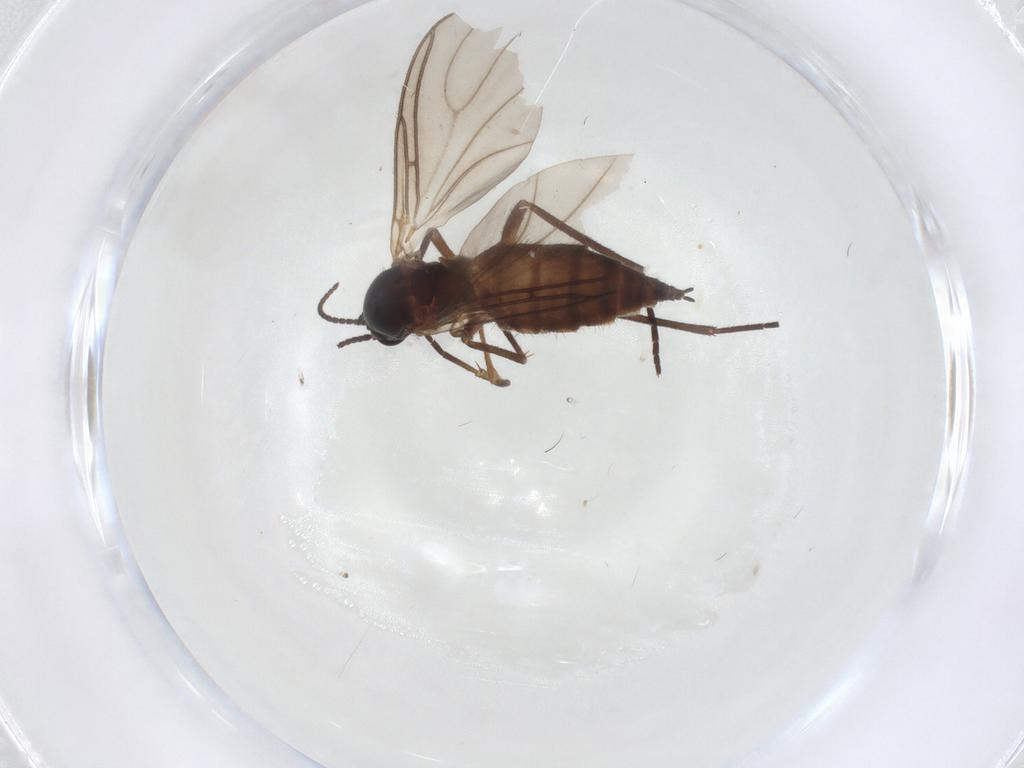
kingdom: Animalia
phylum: Arthropoda
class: Insecta
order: Diptera
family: Sciaridae
